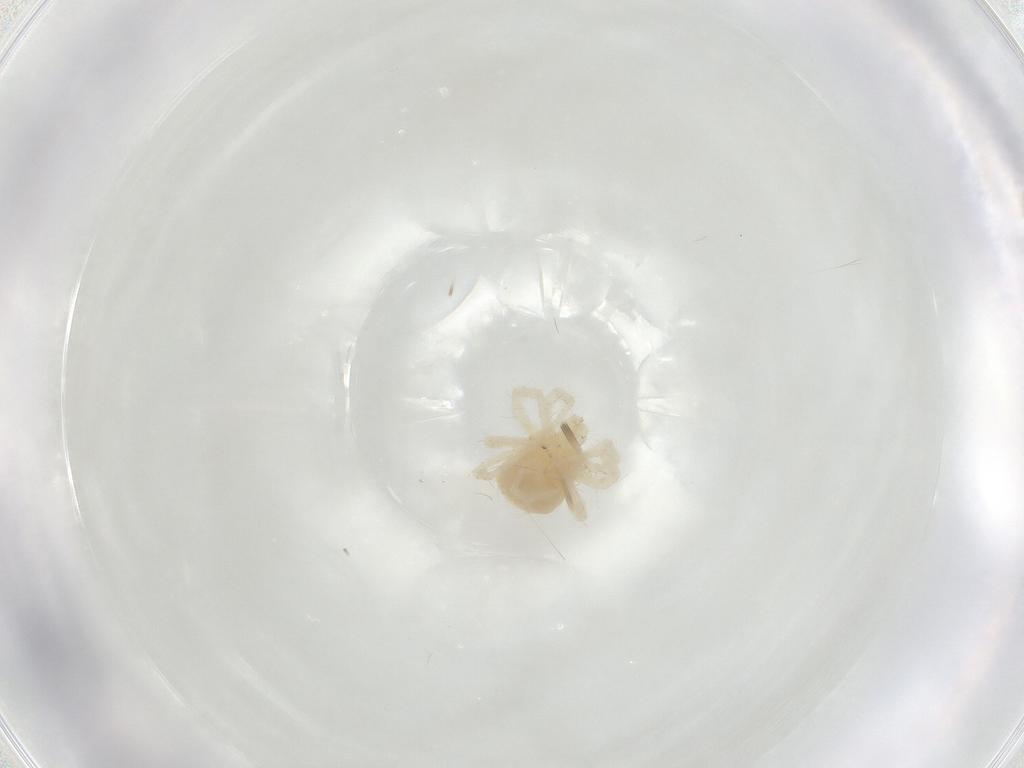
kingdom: Animalia
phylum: Arthropoda
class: Arachnida
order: Trombidiformes
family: Anystidae
